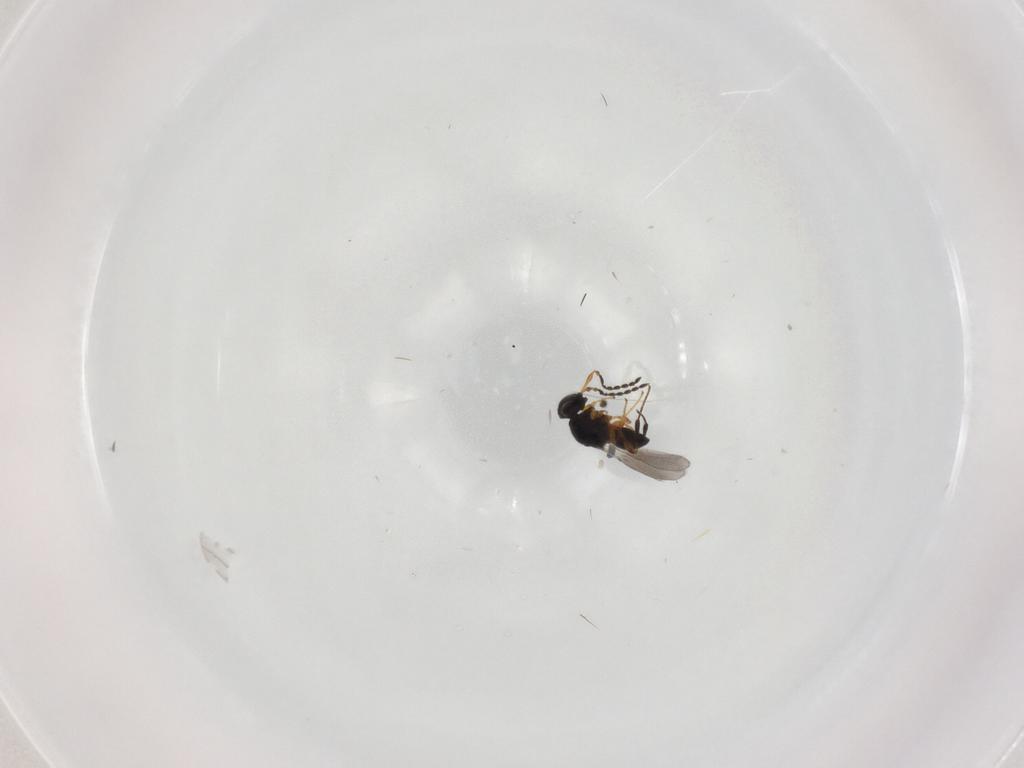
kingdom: Animalia
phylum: Arthropoda
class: Insecta
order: Hymenoptera
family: Platygastridae
